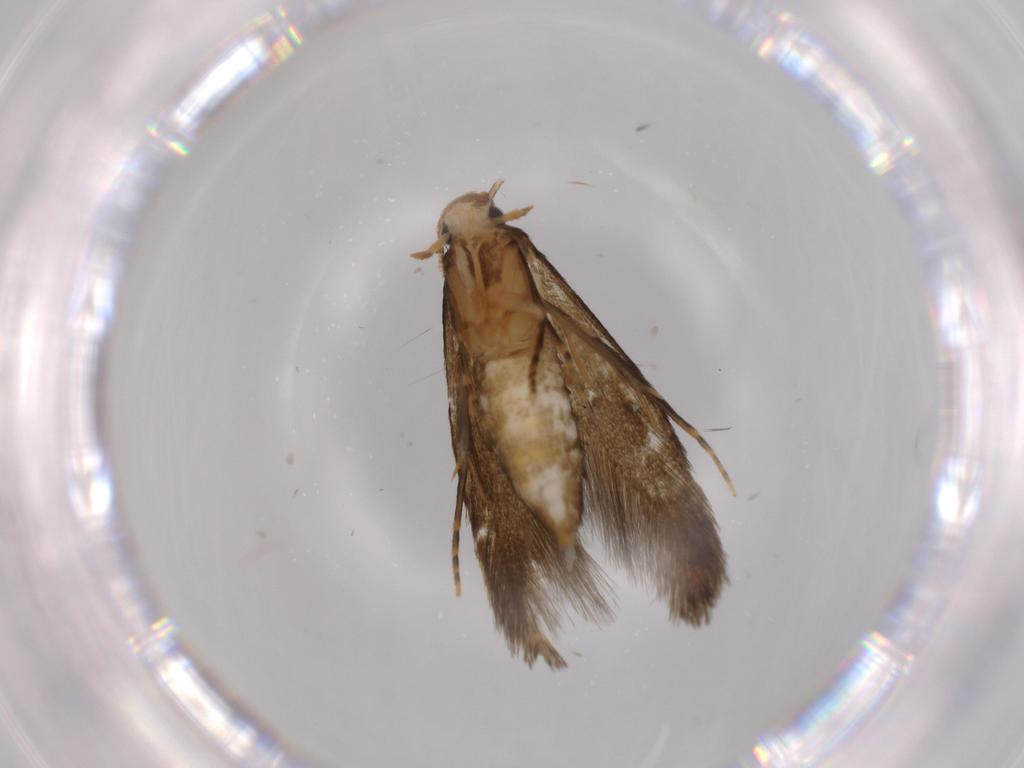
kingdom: Animalia
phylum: Arthropoda
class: Insecta
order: Lepidoptera
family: Tineidae
